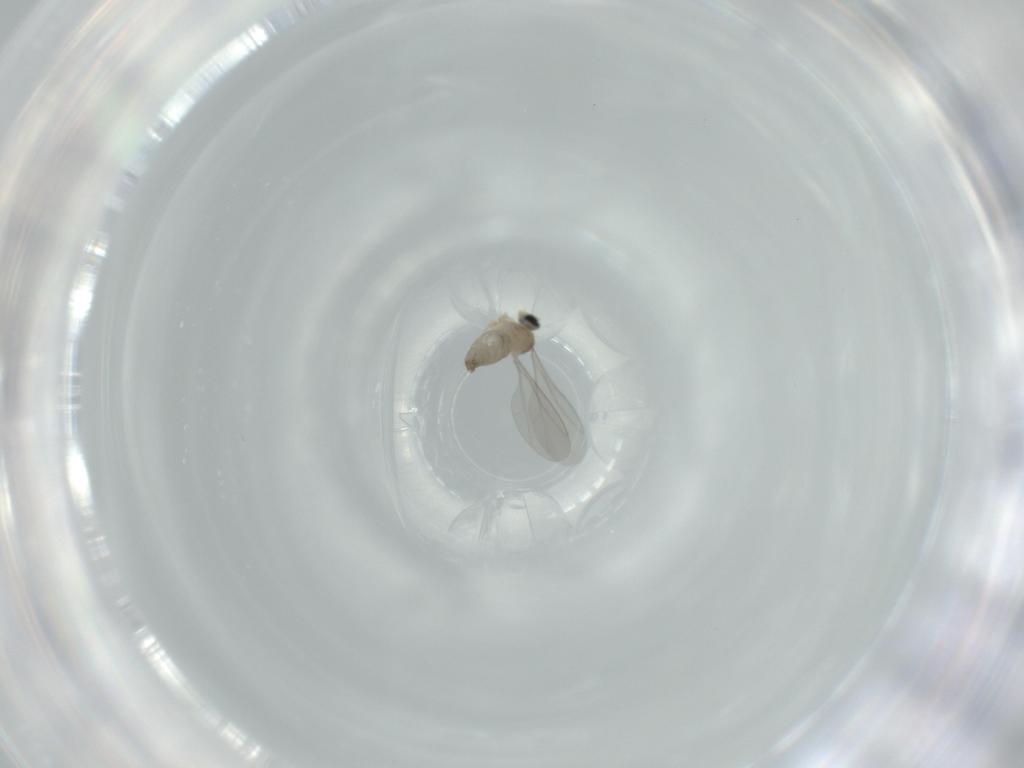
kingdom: Animalia
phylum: Arthropoda
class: Insecta
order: Diptera
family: Cecidomyiidae
